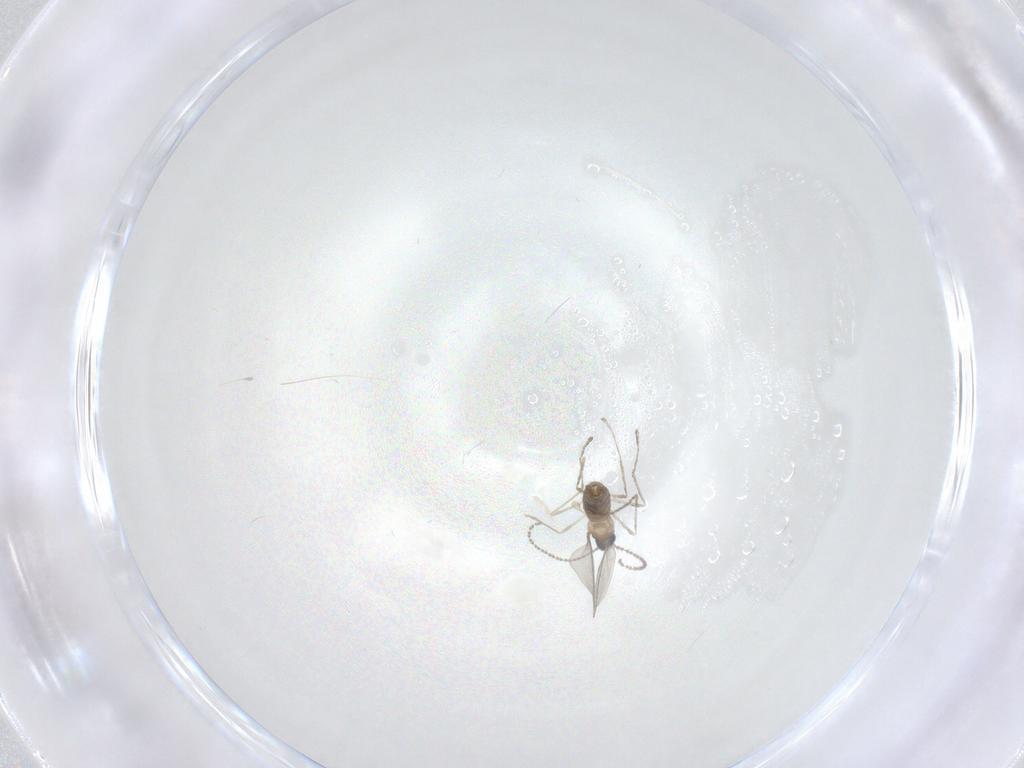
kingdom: Animalia
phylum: Arthropoda
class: Insecta
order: Diptera
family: Cecidomyiidae
